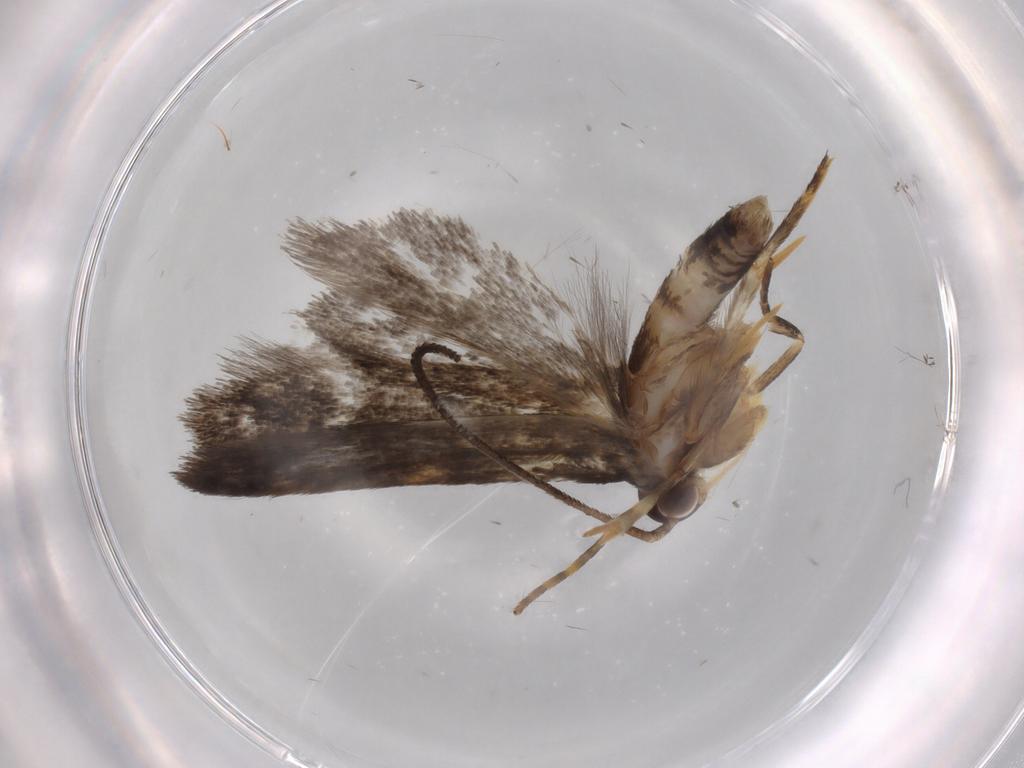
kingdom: Animalia
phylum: Arthropoda
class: Insecta
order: Lepidoptera
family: Autostichidae
